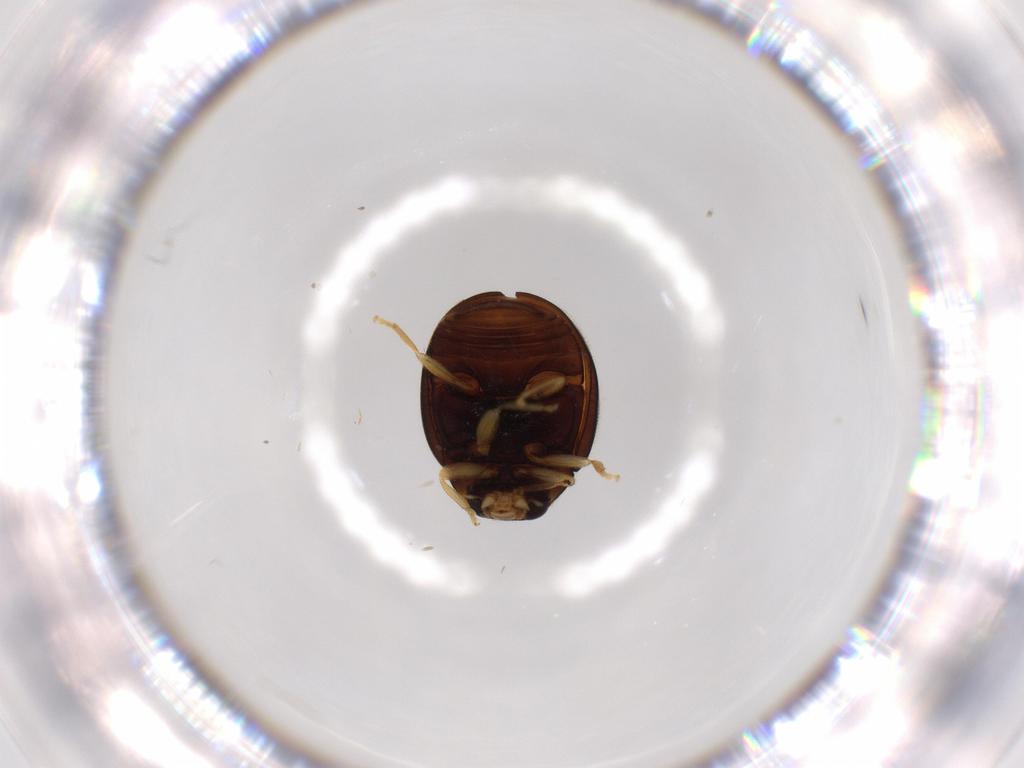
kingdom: Animalia
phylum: Arthropoda
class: Insecta
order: Coleoptera
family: Coccinellidae
